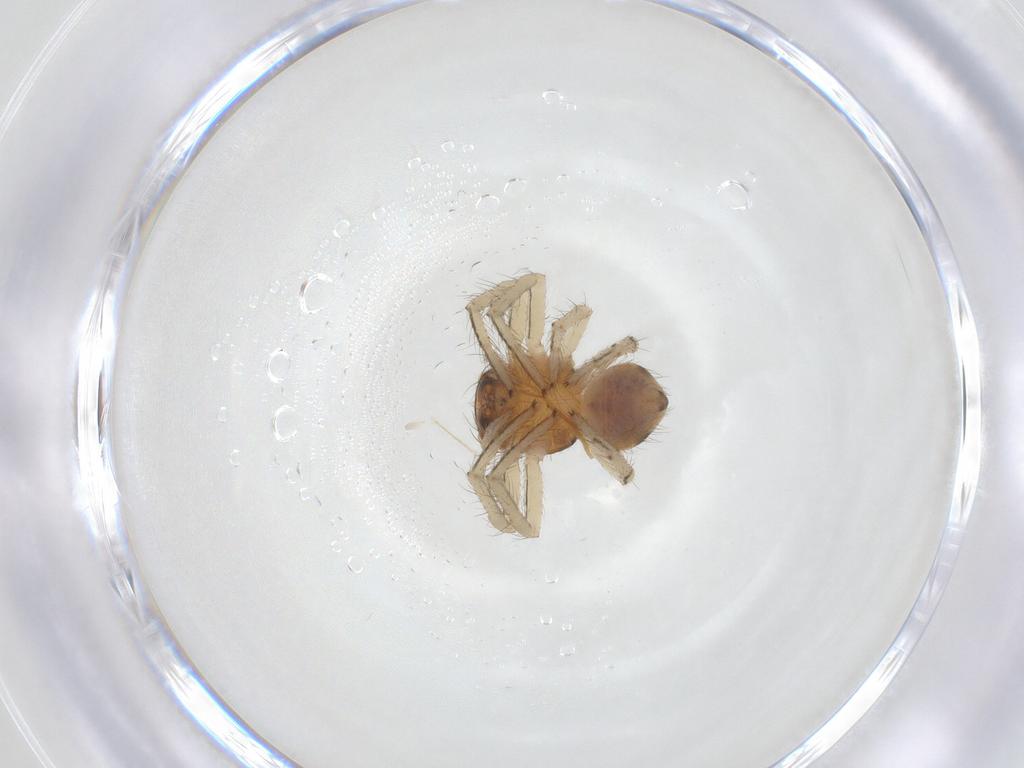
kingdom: Animalia
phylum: Arthropoda
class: Arachnida
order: Araneae
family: Thomisidae
